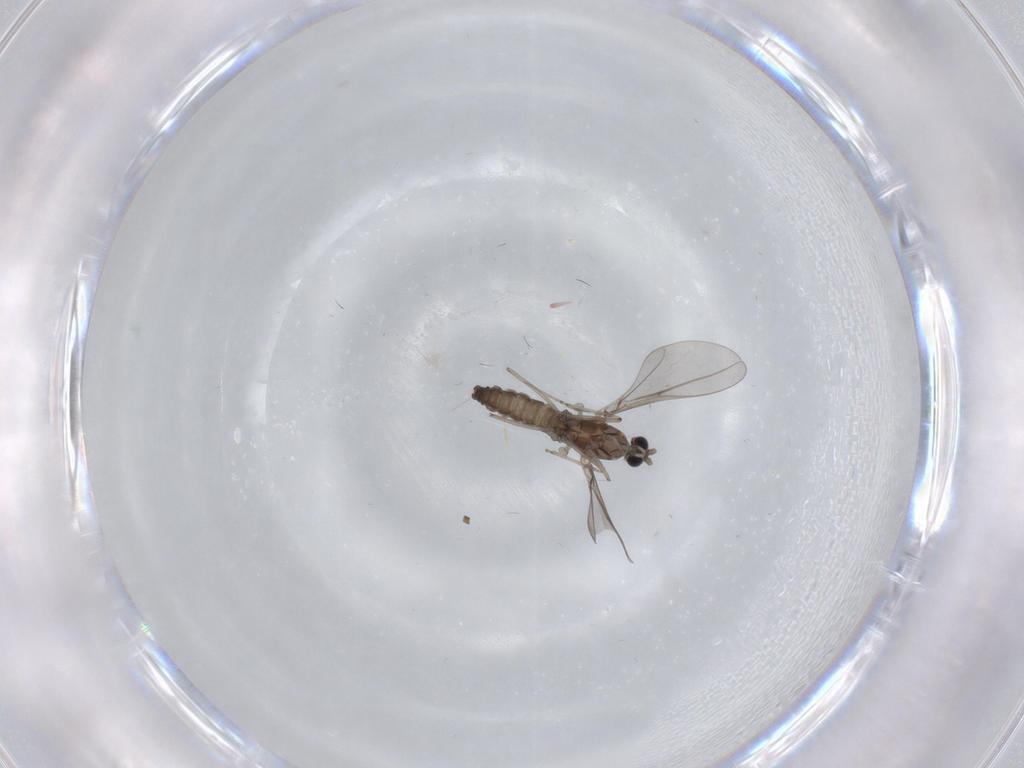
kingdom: Animalia
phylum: Arthropoda
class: Insecta
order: Diptera
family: Sciaridae
